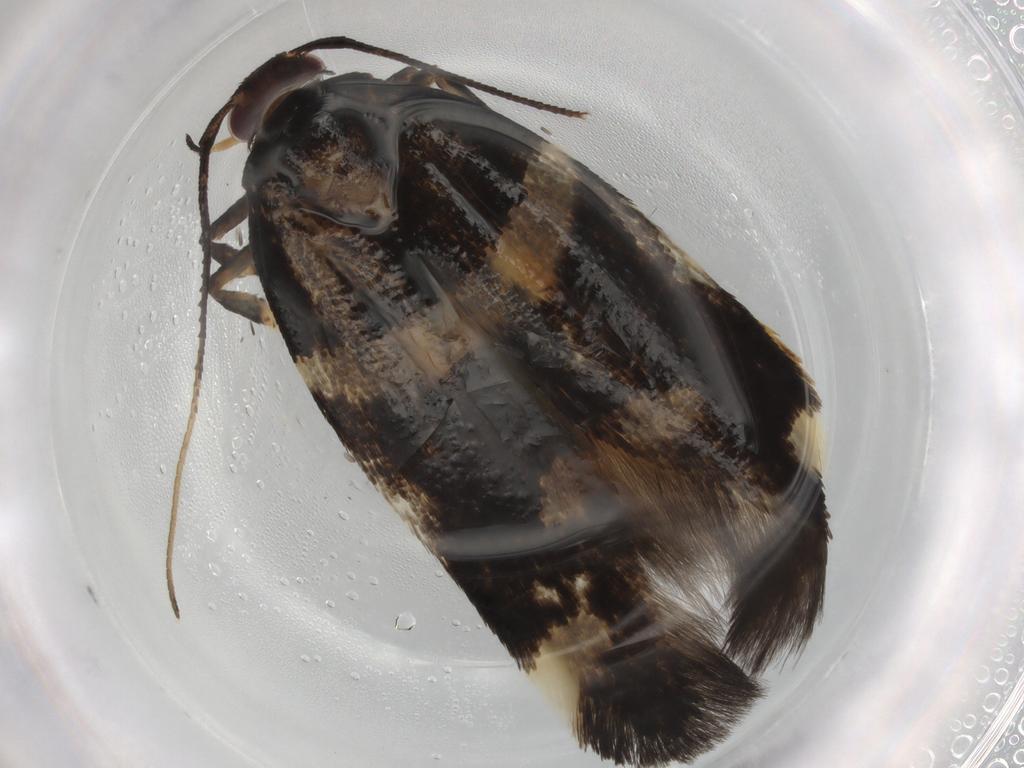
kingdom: Animalia
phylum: Arthropoda
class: Insecta
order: Lepidoptera
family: Cosmopterigidae
